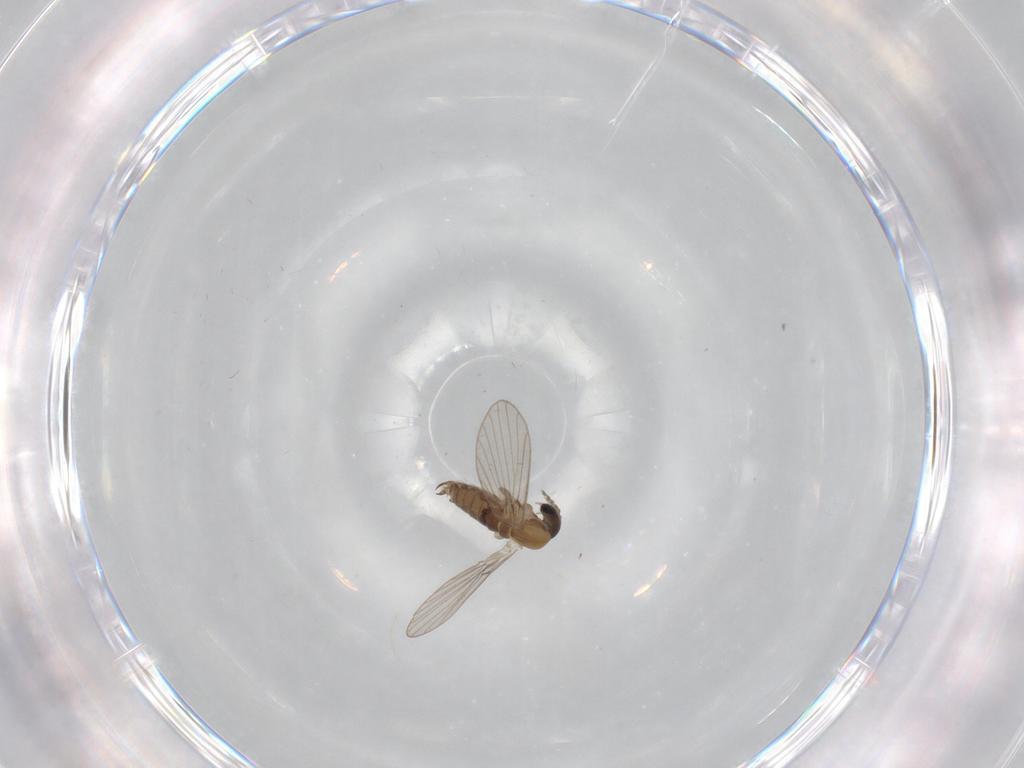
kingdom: Animalia
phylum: Arthropoda
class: Insecta
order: Diptera
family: Psychodidae
